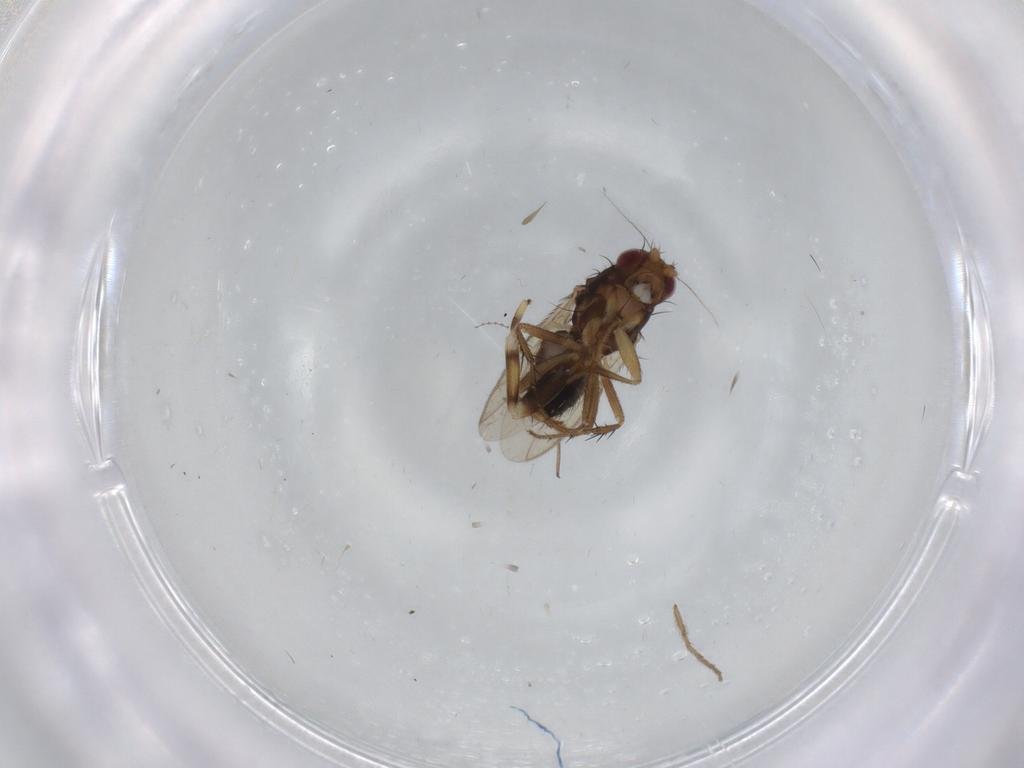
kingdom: Animalia
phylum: Arthropoda
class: Insecta
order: Diptera
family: Sphaeroceridae
